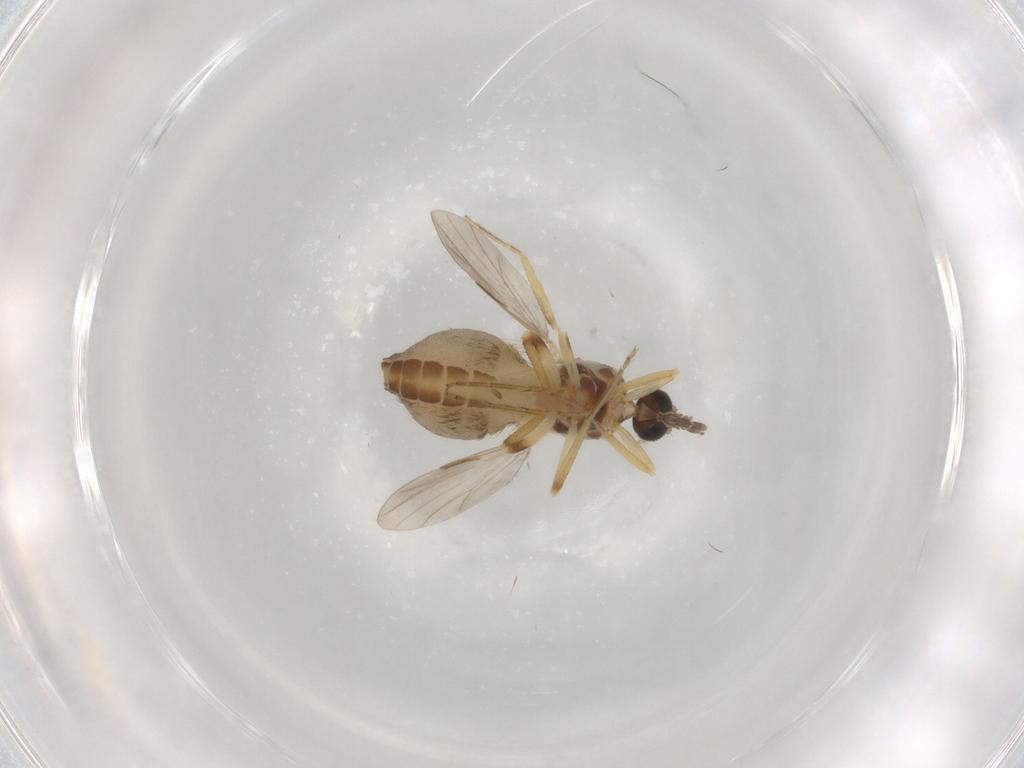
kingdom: Animalia
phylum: Arthropoda
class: Insecta
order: Diptera
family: Ceratopogonidae
